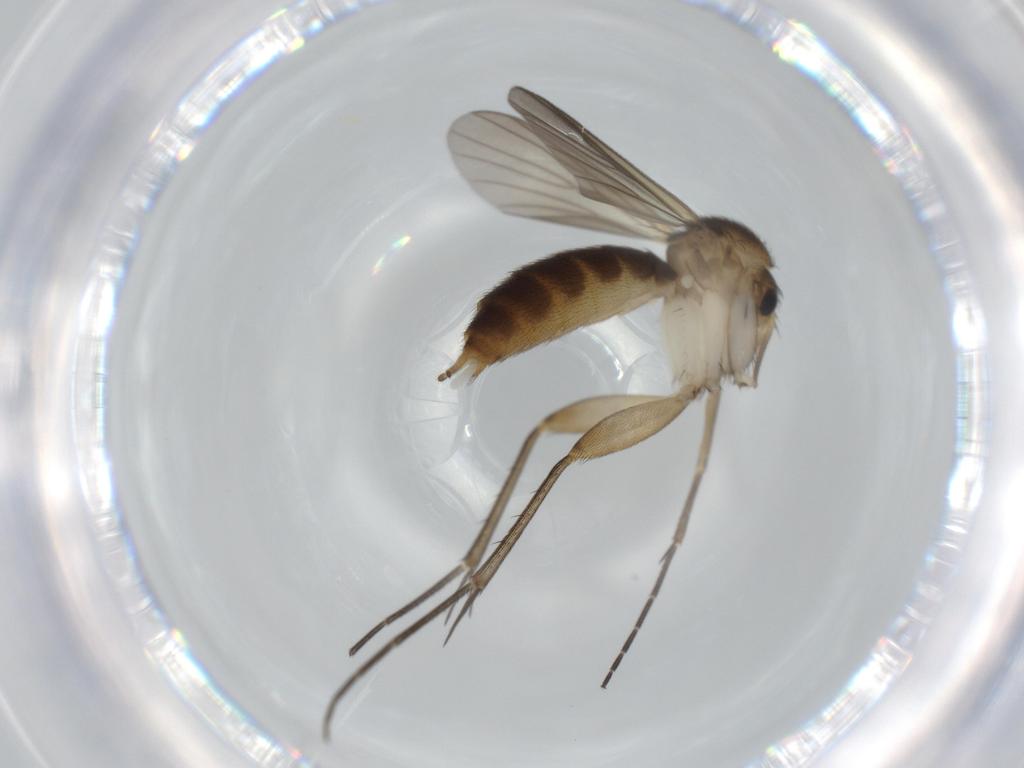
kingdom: Animalia
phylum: Arthropoda
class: Insecta
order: Diptera
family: Mycetophilidae
